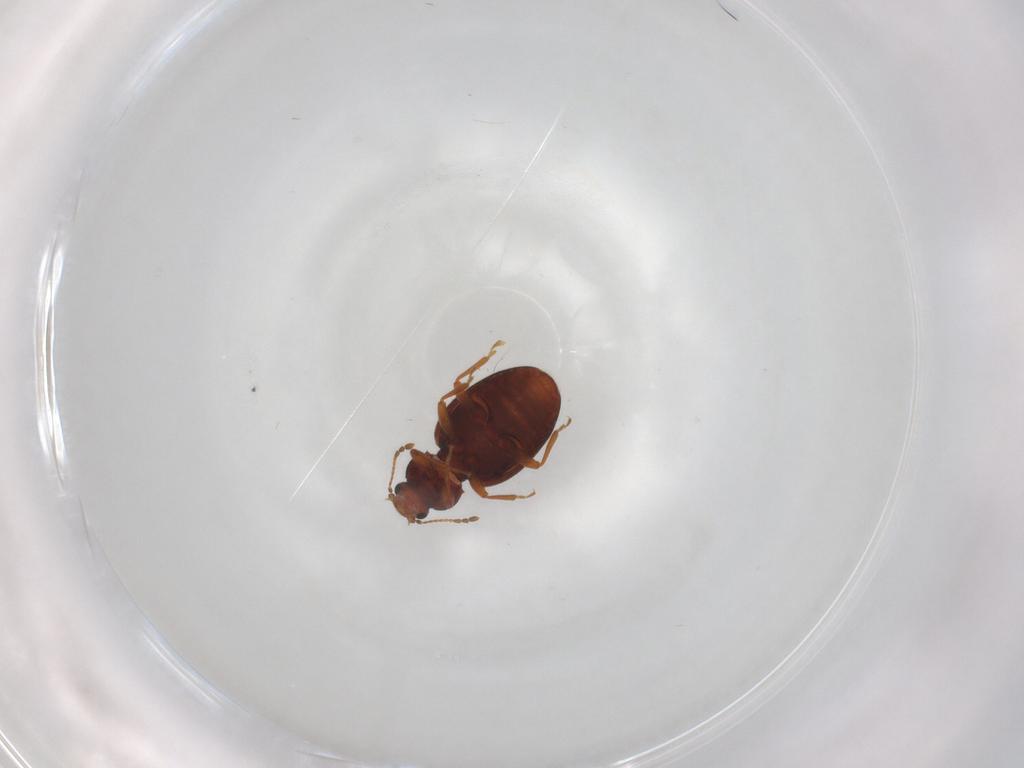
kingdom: Animalia
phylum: Arthropoda
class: Insecta
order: Coleoptera
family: Latridiidae
